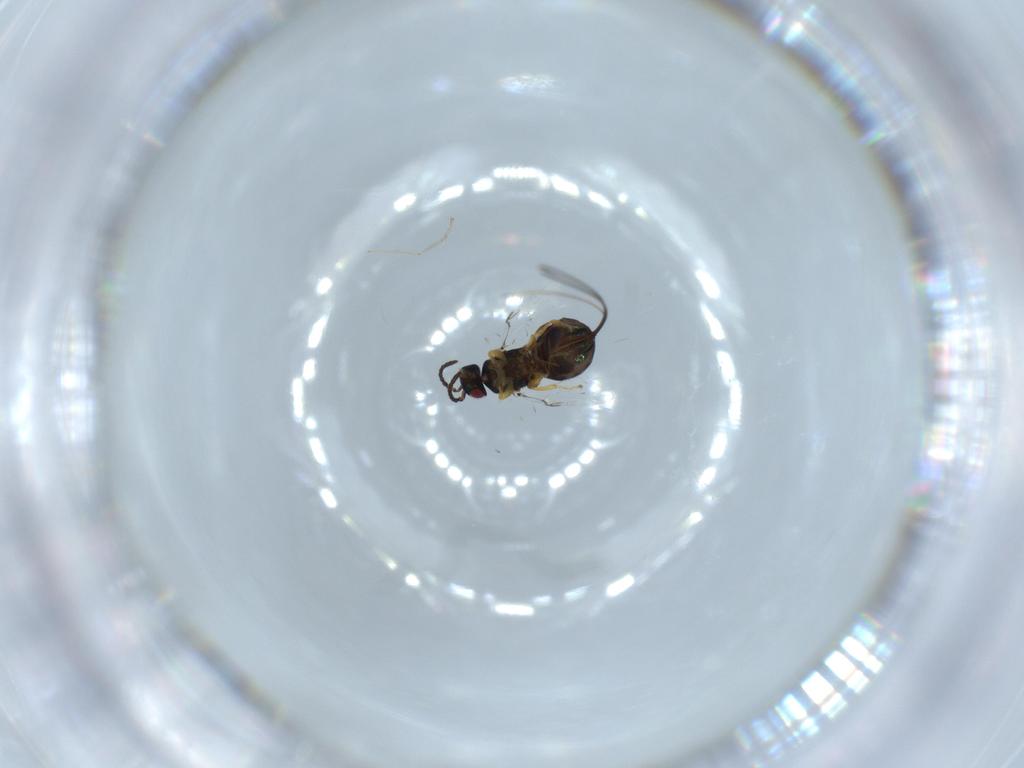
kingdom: Animalia
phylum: Arthropoda
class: Insecta
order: Hymenoptera
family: Agaonidae
